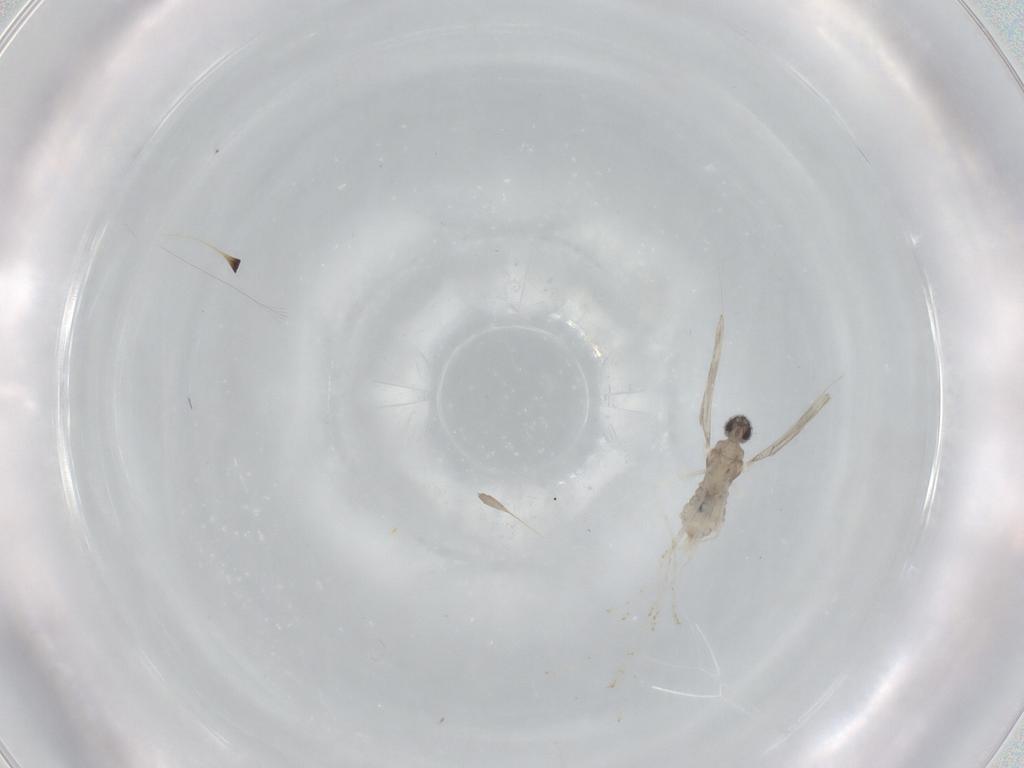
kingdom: Animalia
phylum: Arthropoda
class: Insecta
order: Diptera
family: Cecidomyiidae
